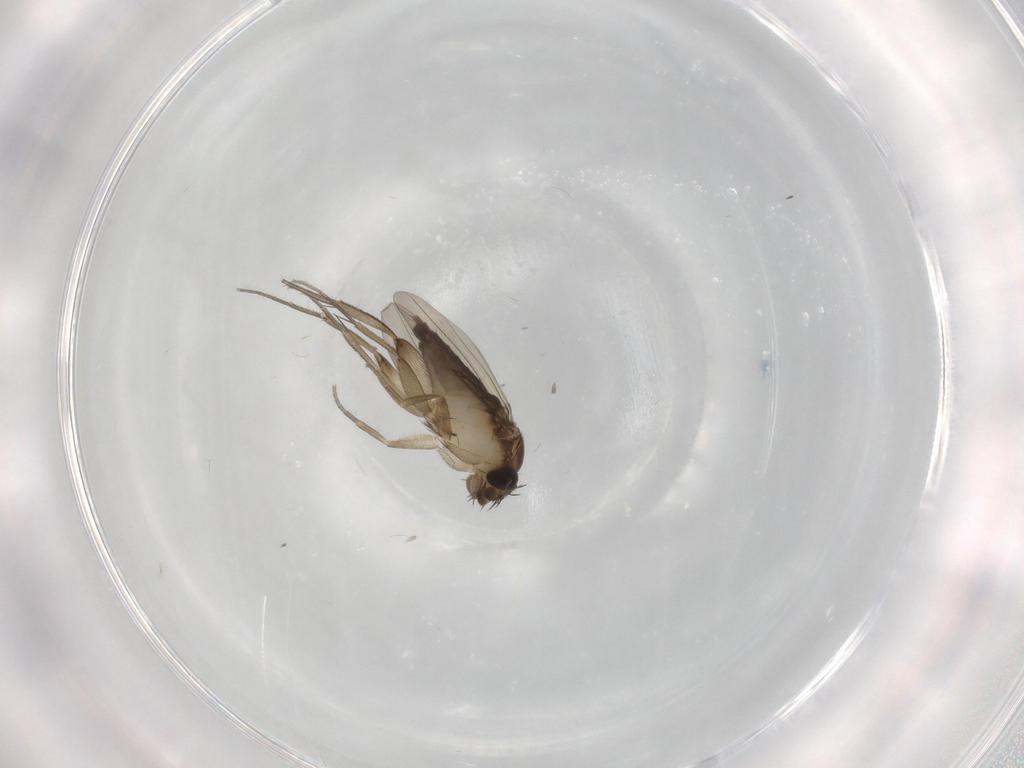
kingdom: Animalia
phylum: Arthropoda
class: Insecta
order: Diptera
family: Phoridae
